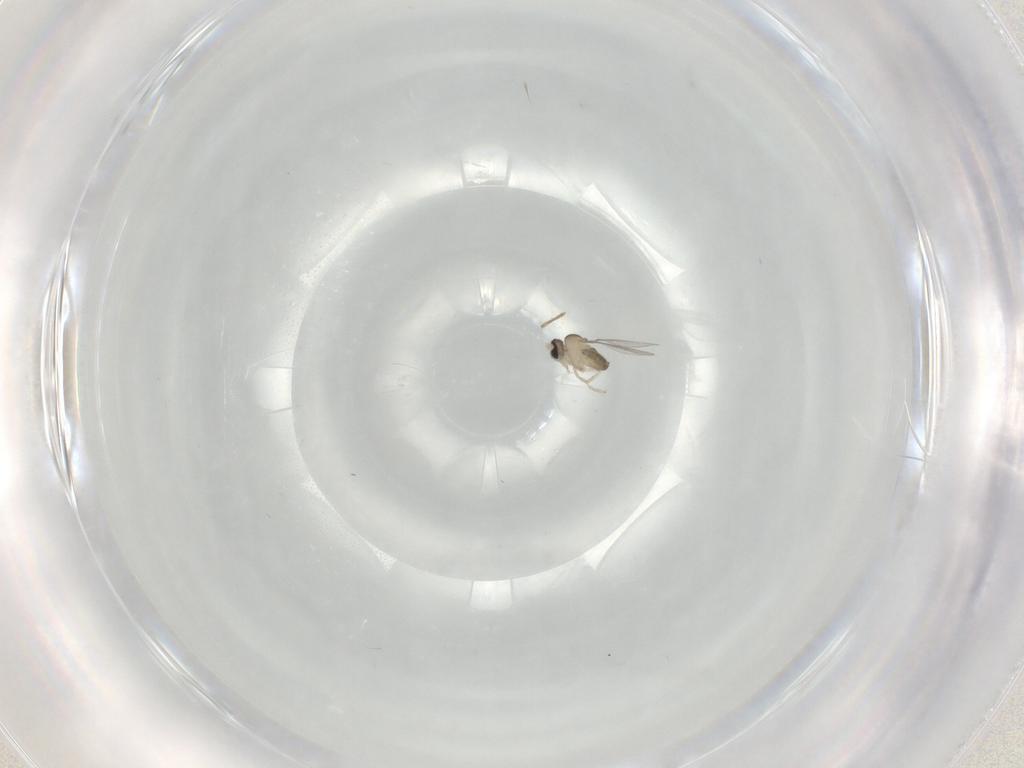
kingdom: Animalia
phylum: Arthropoda
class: Insecta
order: Diptera
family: Cecidomyiidae
